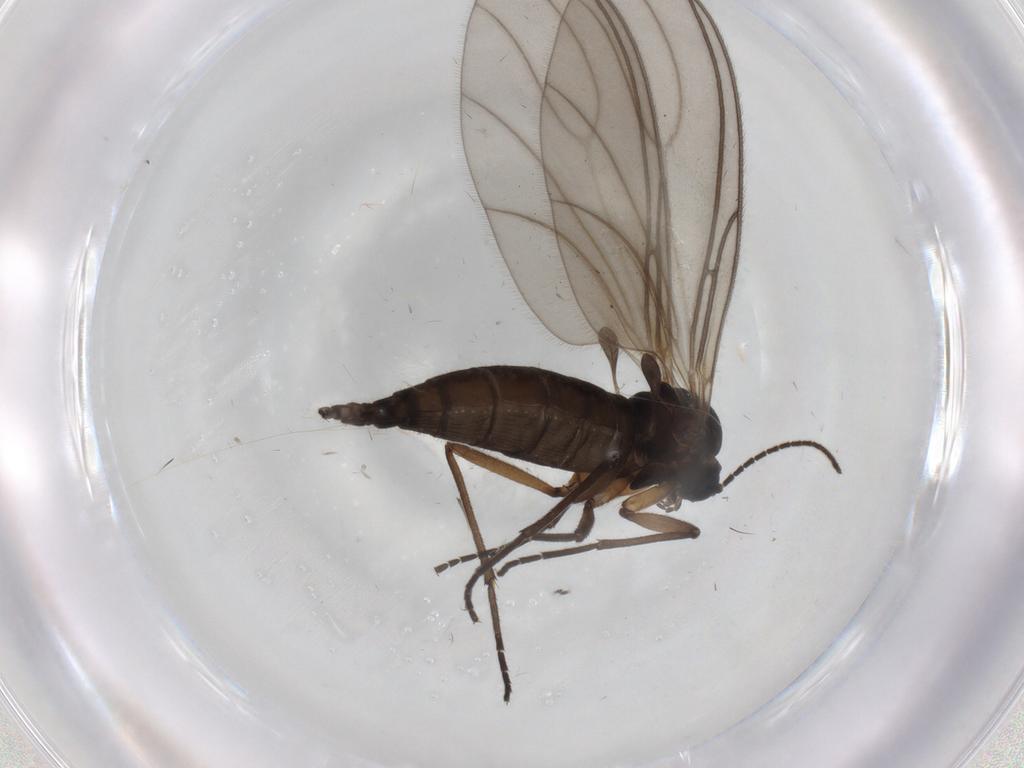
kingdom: Animalia
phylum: Arthropoda
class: Insecta
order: Diptera
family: Sciaridae
